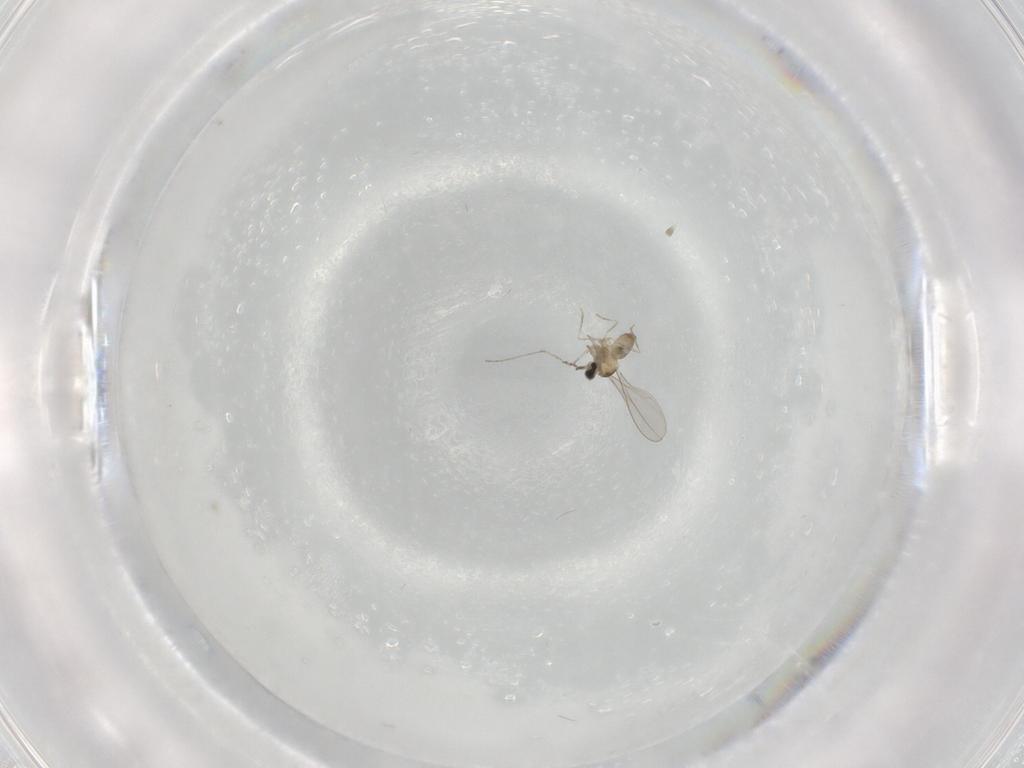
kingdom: Animalia
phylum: Arthropoda
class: Insecta
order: Diptera
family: Cecidomyiidae
